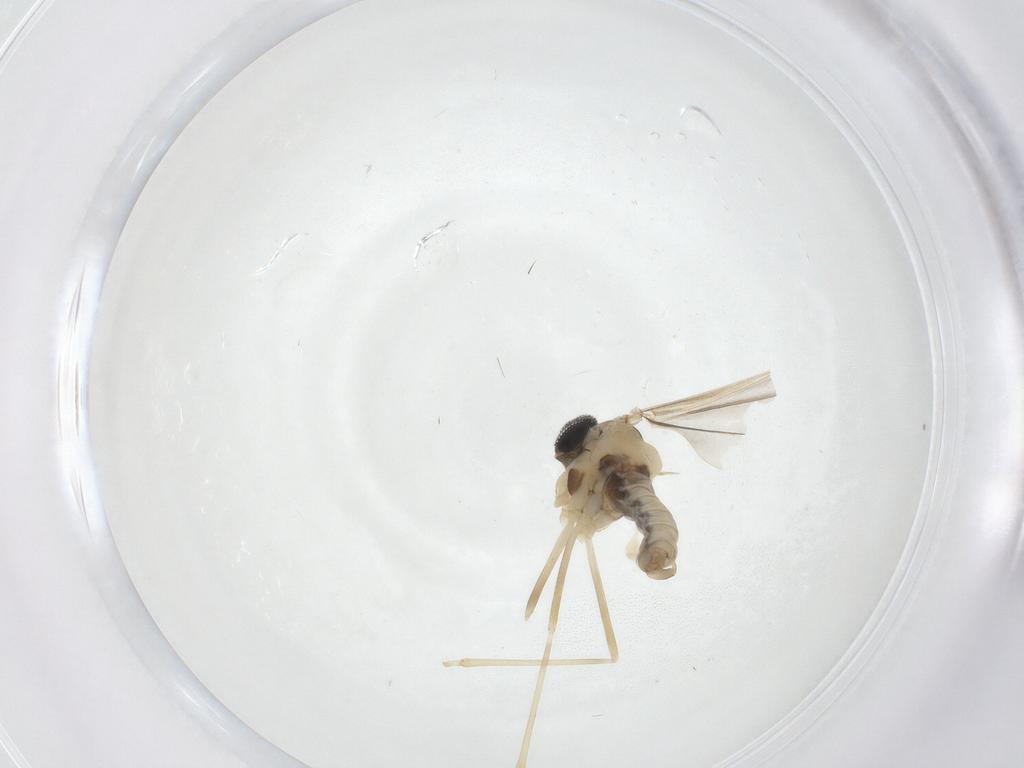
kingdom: Animalia
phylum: Arthropoda
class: Insecta
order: Diptera
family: Cecidomyiidae
